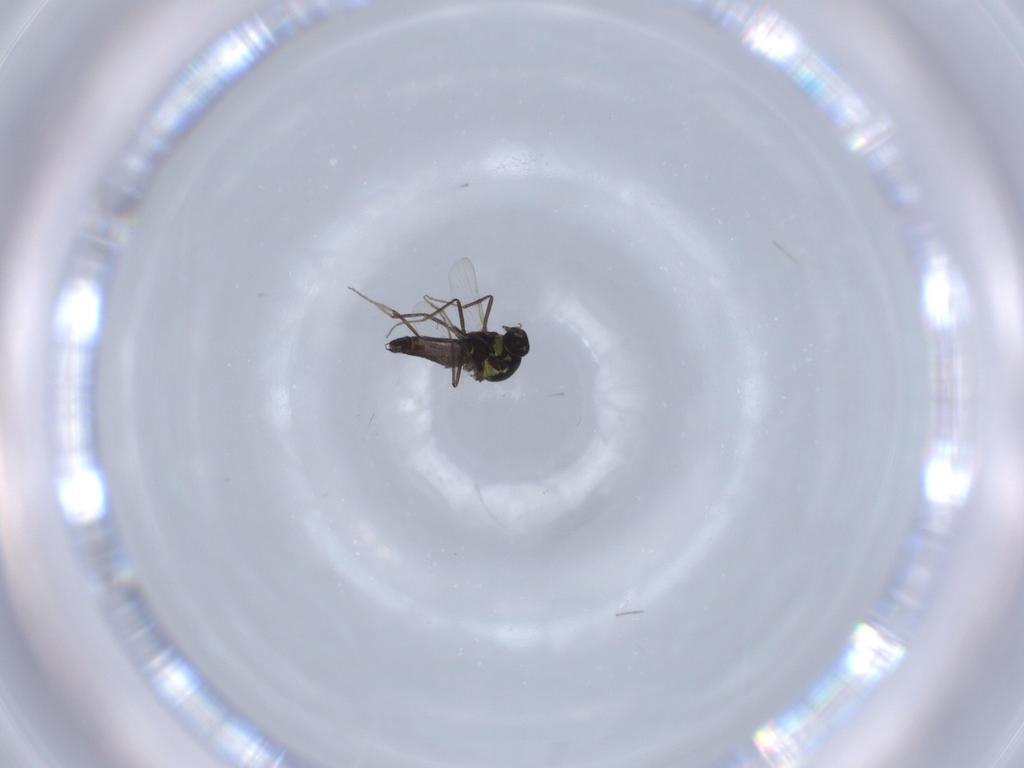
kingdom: Animalia
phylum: Arthropoda
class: Insecta
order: Diptera
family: Ceratopogonidae
